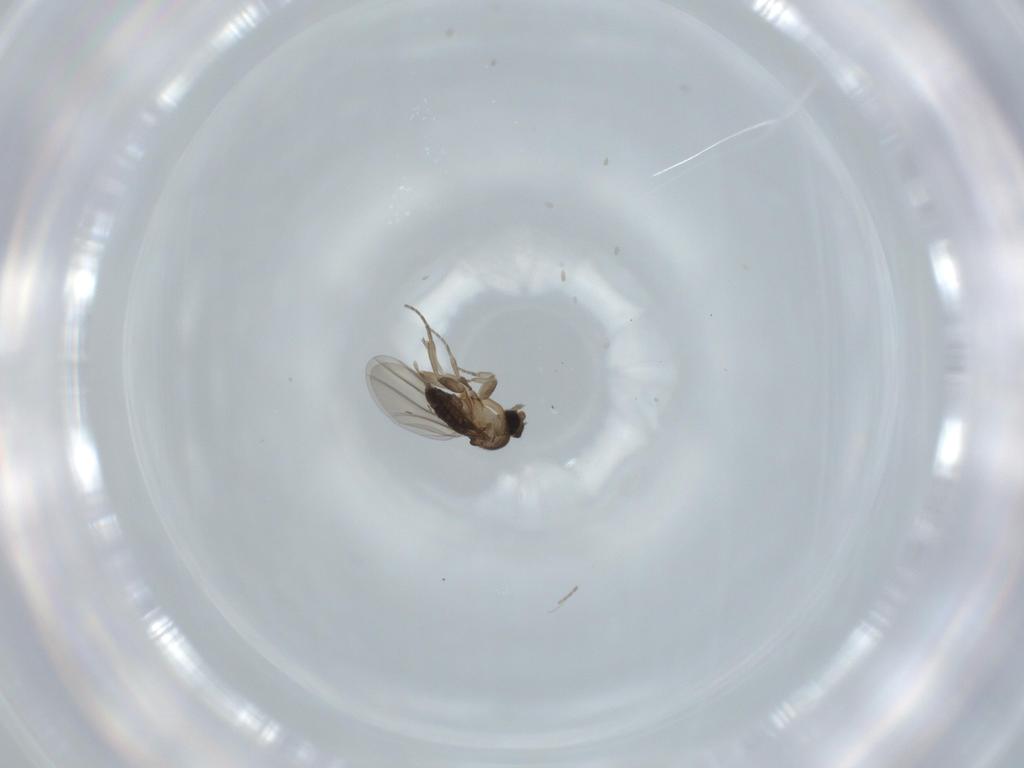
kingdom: Animalia
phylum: Arthropoda
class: Insecta
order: Diptera
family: Phoridae
